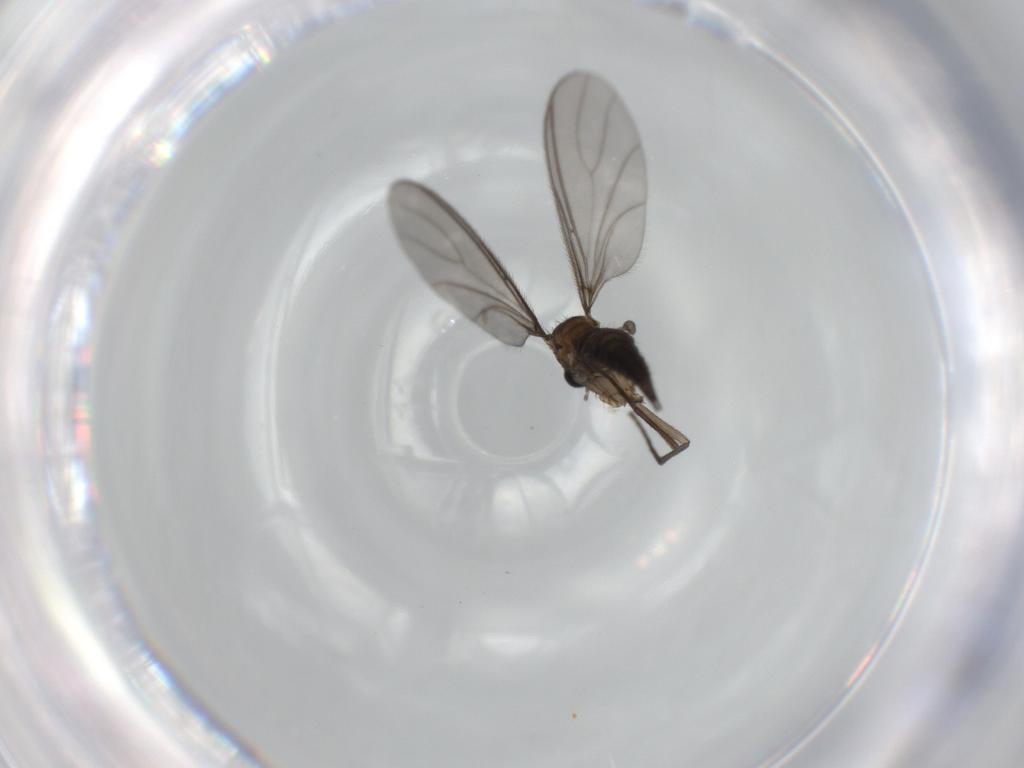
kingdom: Animalia
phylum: Arthropoda
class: Insecta
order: Diptera
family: Sciaridae
